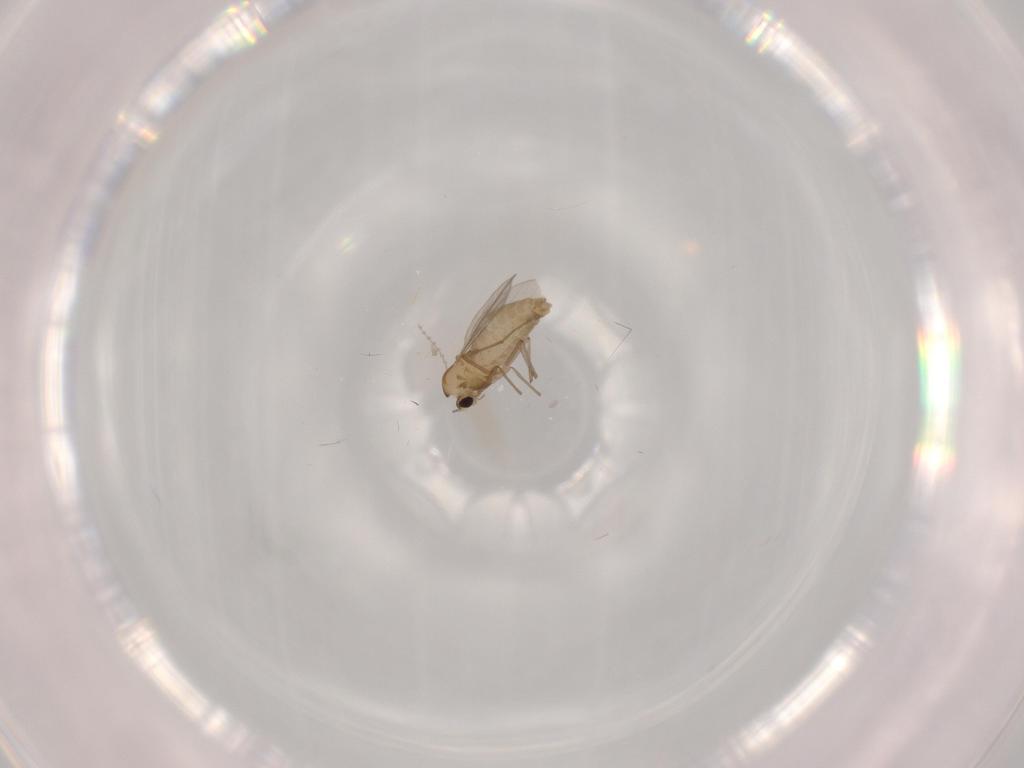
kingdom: Animalia
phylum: Arthropoda
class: Insecta
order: Diptera
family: Chironomidae
